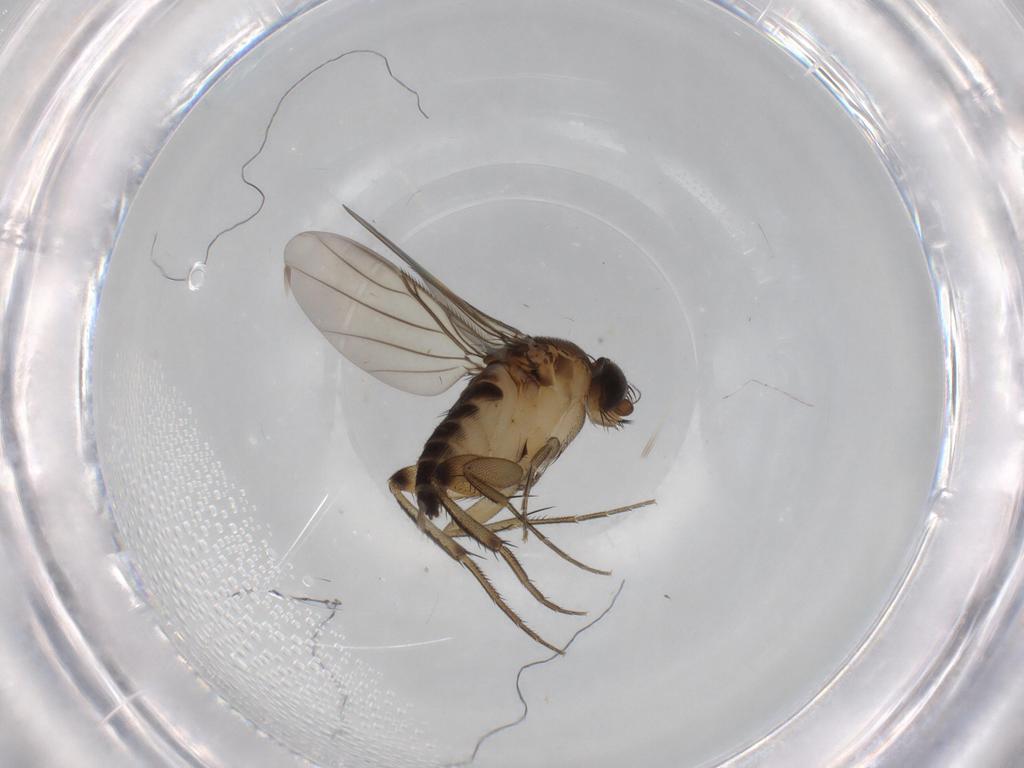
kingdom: Animalia
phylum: Arthropoda
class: Insecta
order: Diptera
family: Phoridae
